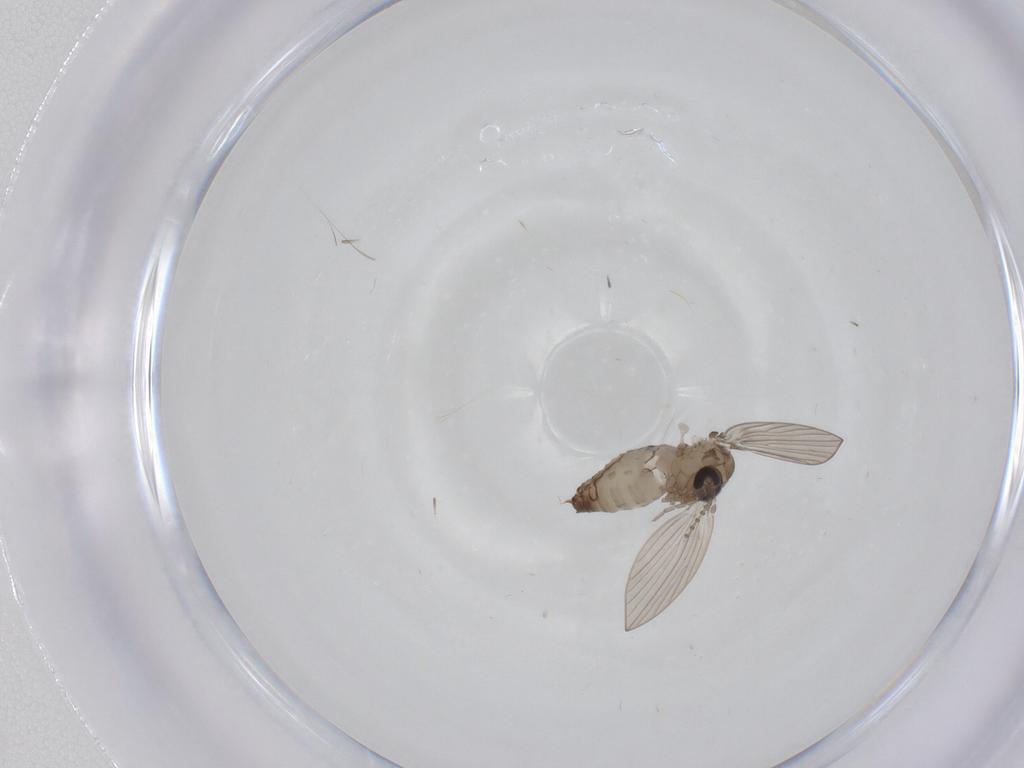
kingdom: Animalia
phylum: Arthropoda
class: Insecta
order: Diptera
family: Psychodidae
